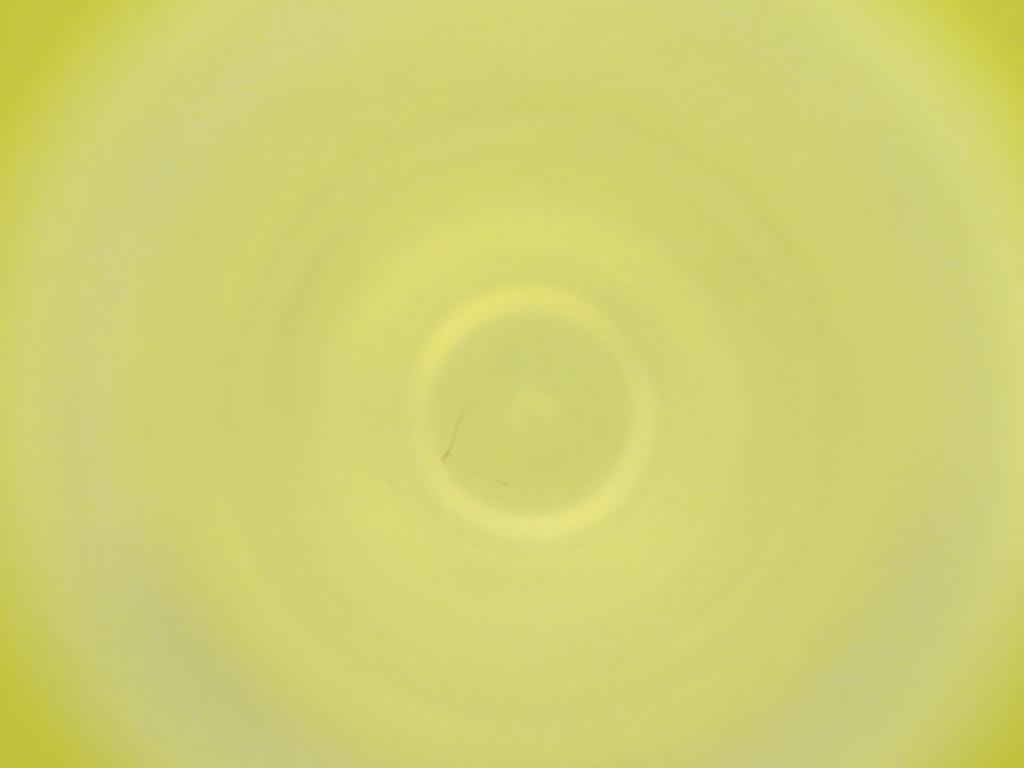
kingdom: Animalia
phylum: Arthropoda
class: Insecta
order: Diptera
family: Cecidomyiidae
